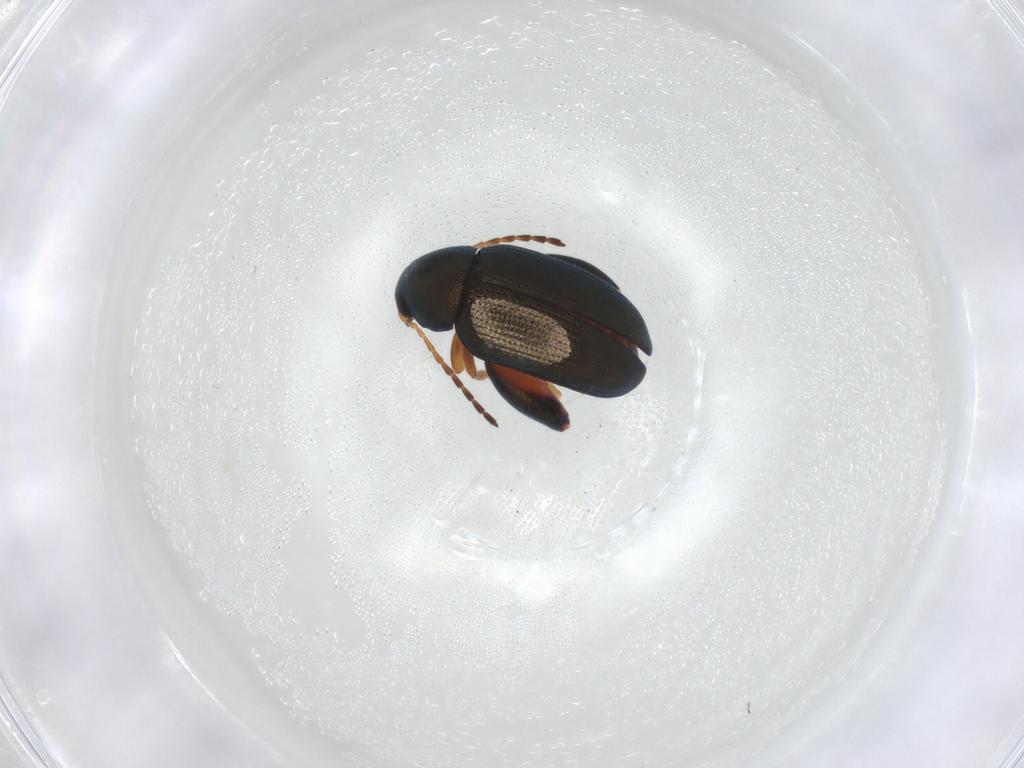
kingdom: Animalia
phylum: Arthropoda
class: Insecta
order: Coleoptera
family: Chrysomelidae
